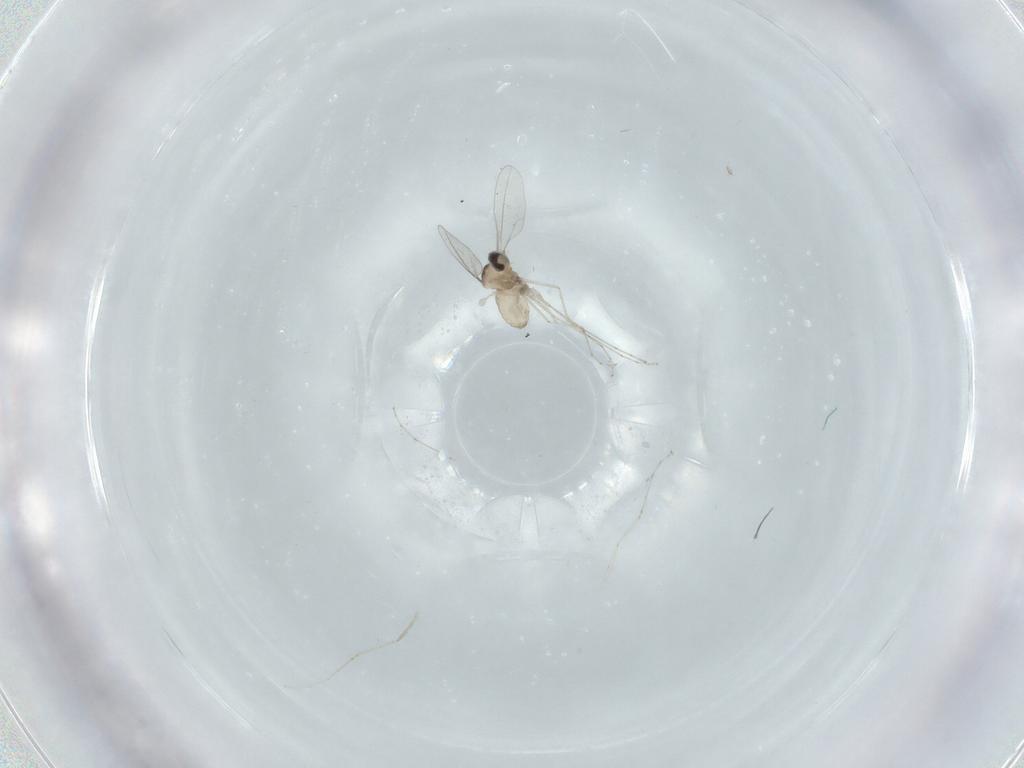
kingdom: Animalia
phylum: Arthropoda
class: Insecta
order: Diptera
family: Cecidomyiidae
